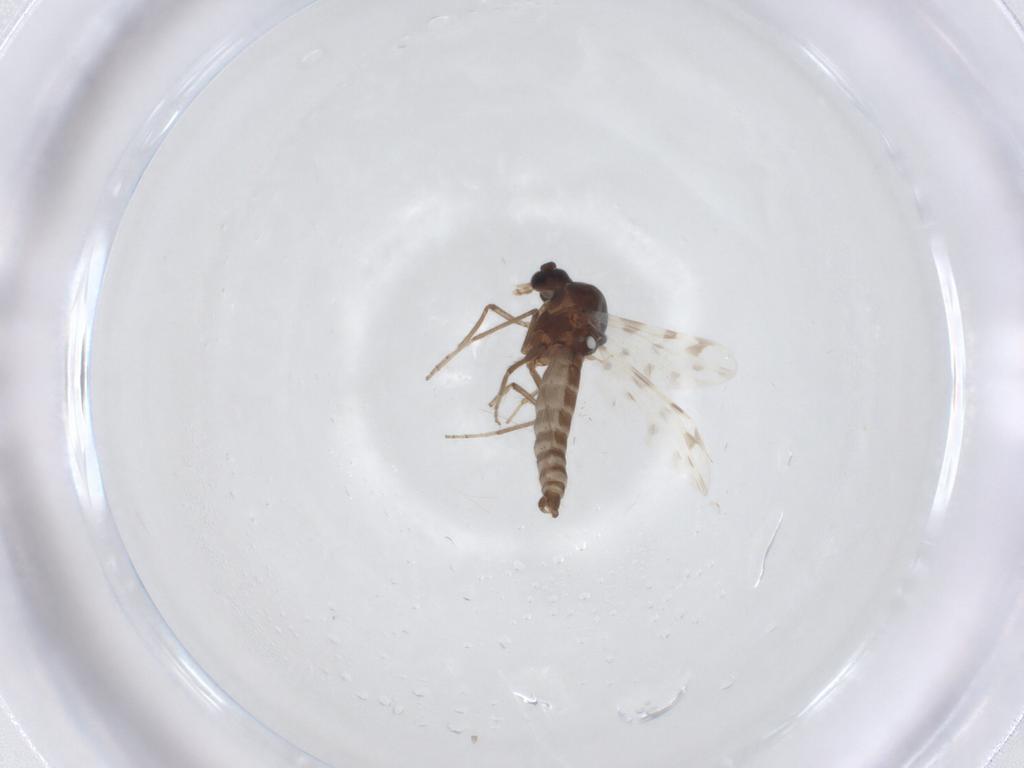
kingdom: Animalia
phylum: Arthropoda
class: Insecta
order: Diptera
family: Ceratopogonidae
